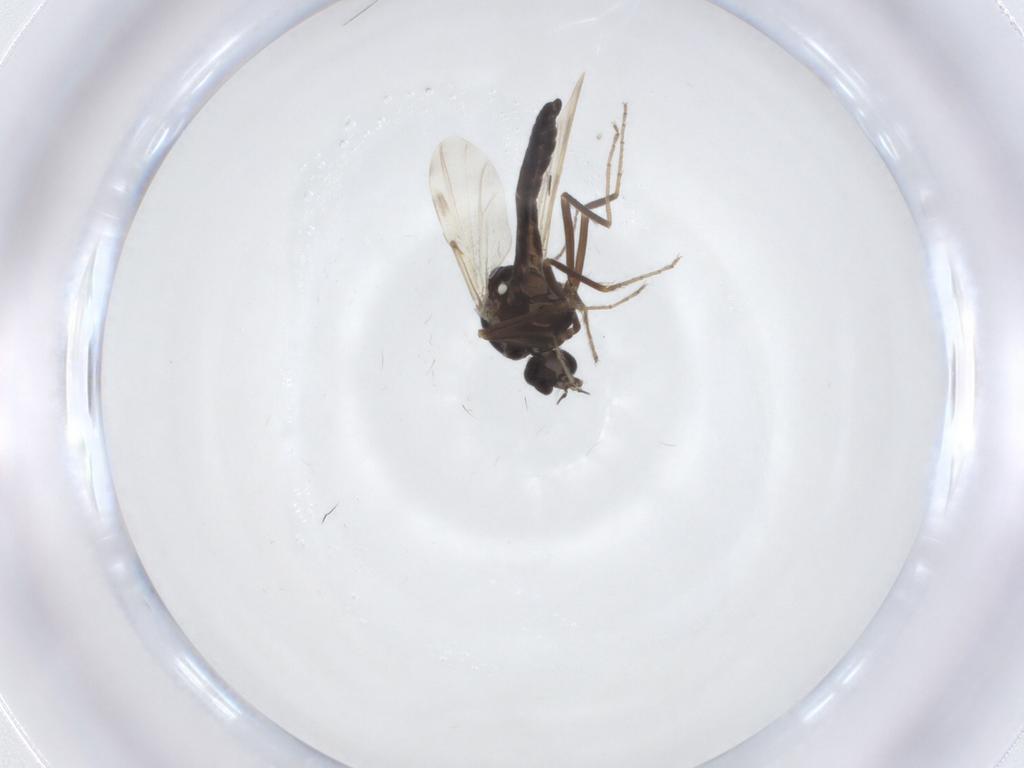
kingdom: Animalia
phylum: Arthropoda
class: Insecta
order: Diptera
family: Ceratopogonidae
